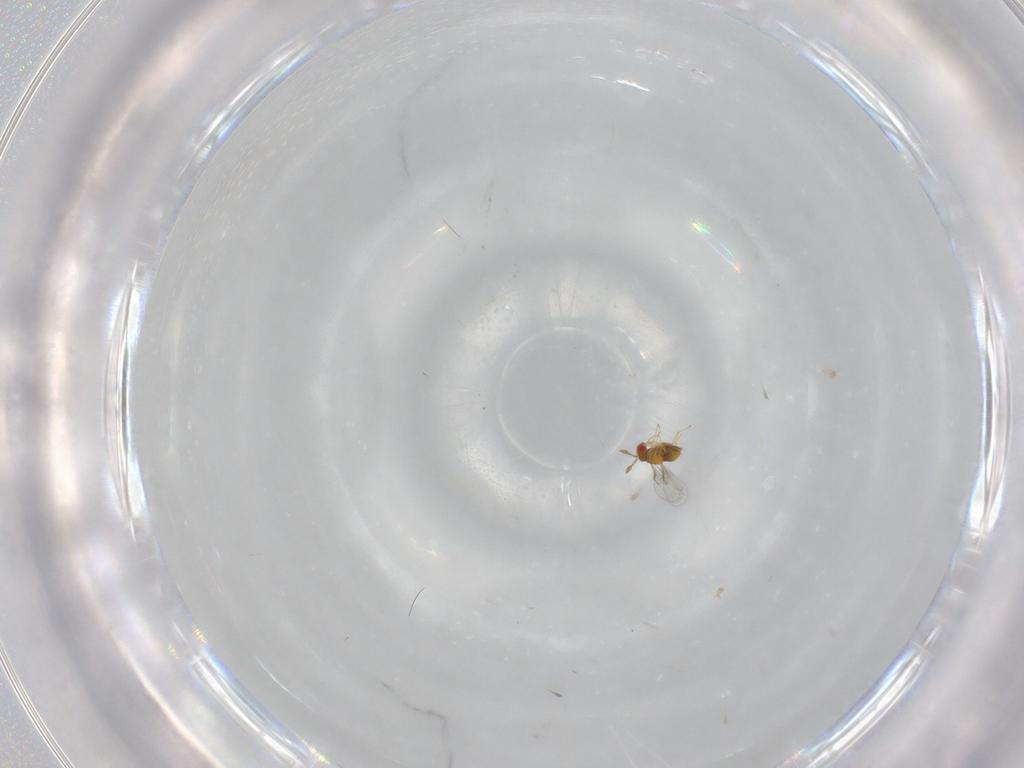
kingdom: Animalia
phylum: Arthropoda
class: Insecta
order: Hymenoptera
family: Trichogrammatidae
